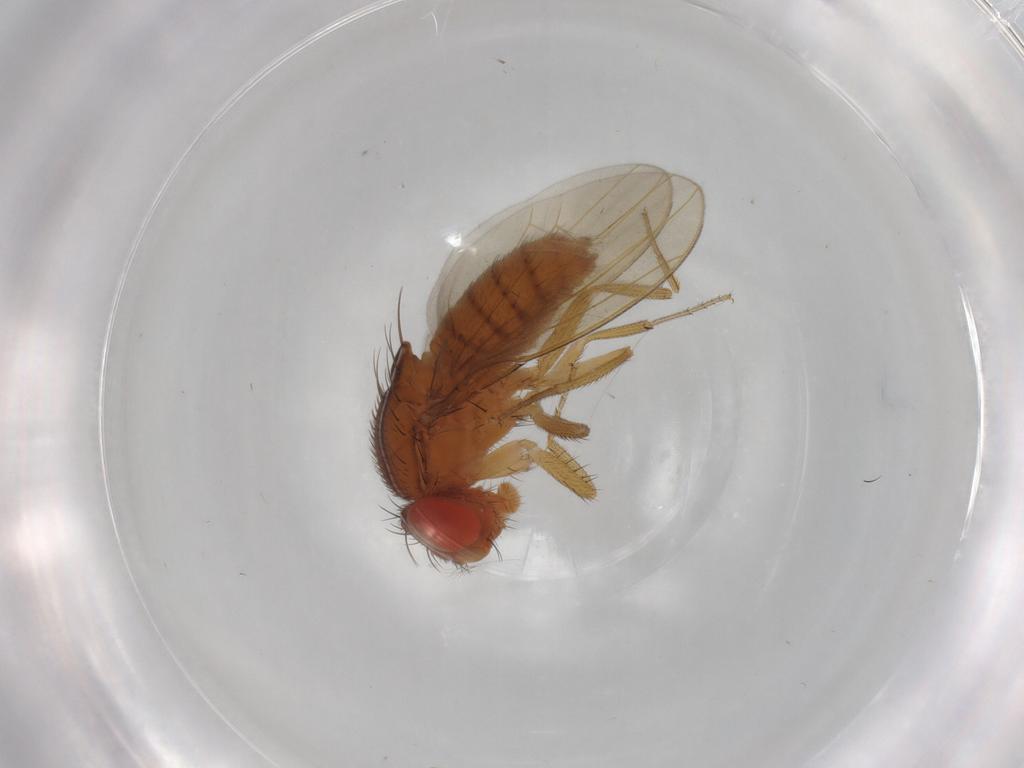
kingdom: Animalia
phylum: Arthropoda
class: Insecta
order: Diptera
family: Drosophilidae
